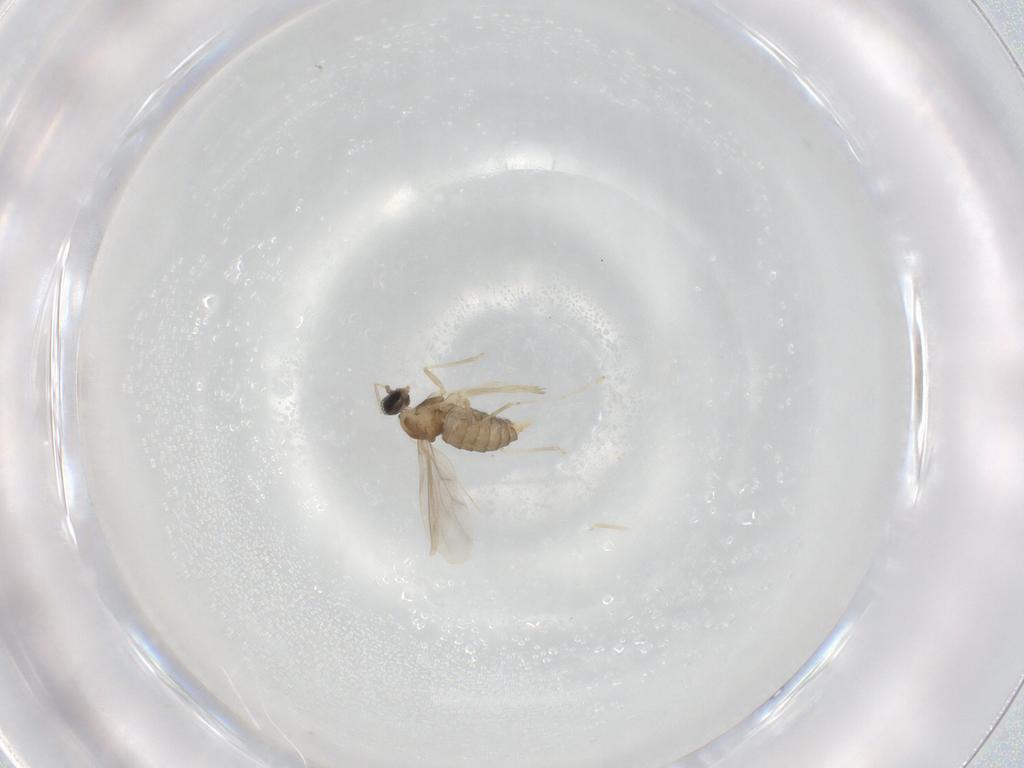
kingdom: Animalia
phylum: Arthropoda
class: Insecta
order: Diptera
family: Cecidomyiidae
